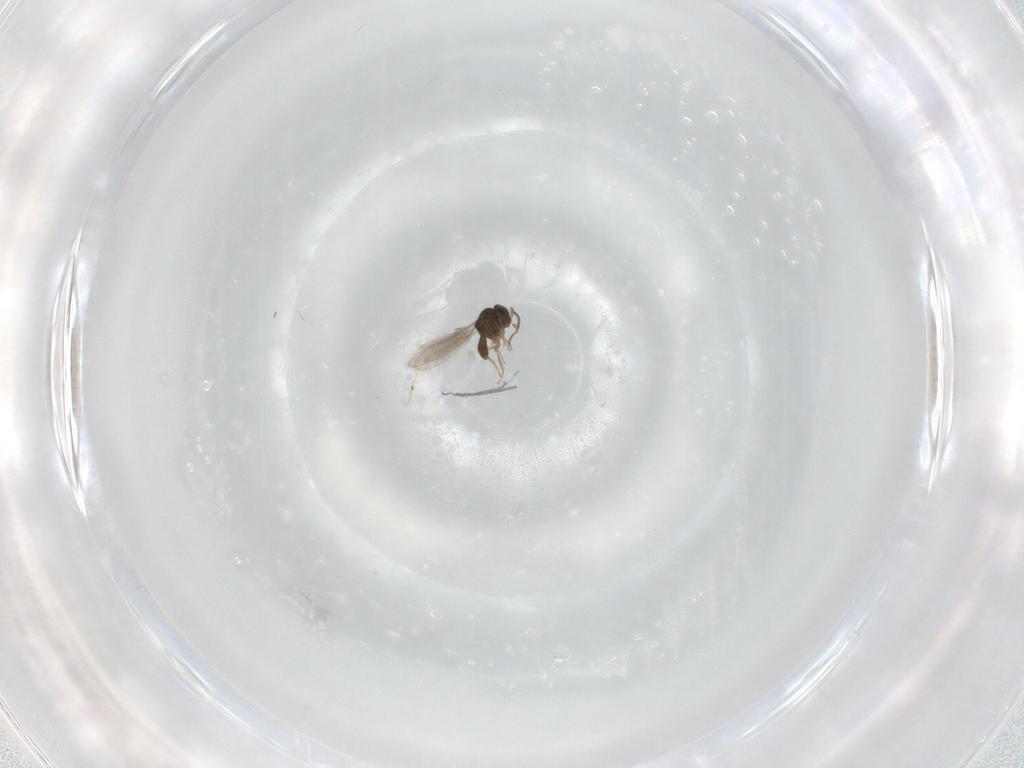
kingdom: Animalia
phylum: Arthropoda
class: Insecta
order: Hymenoptera
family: Scelionidae
